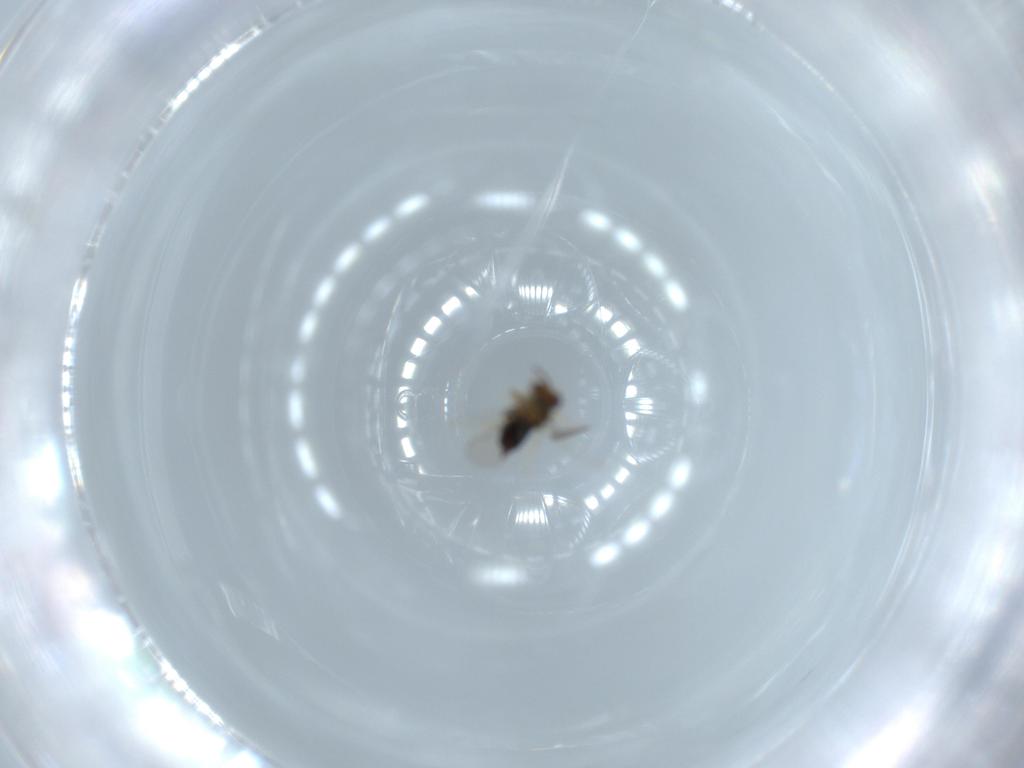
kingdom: Animalia
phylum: Arthropoda
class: Insecta
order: Hymenoptera
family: Aphelinidae
